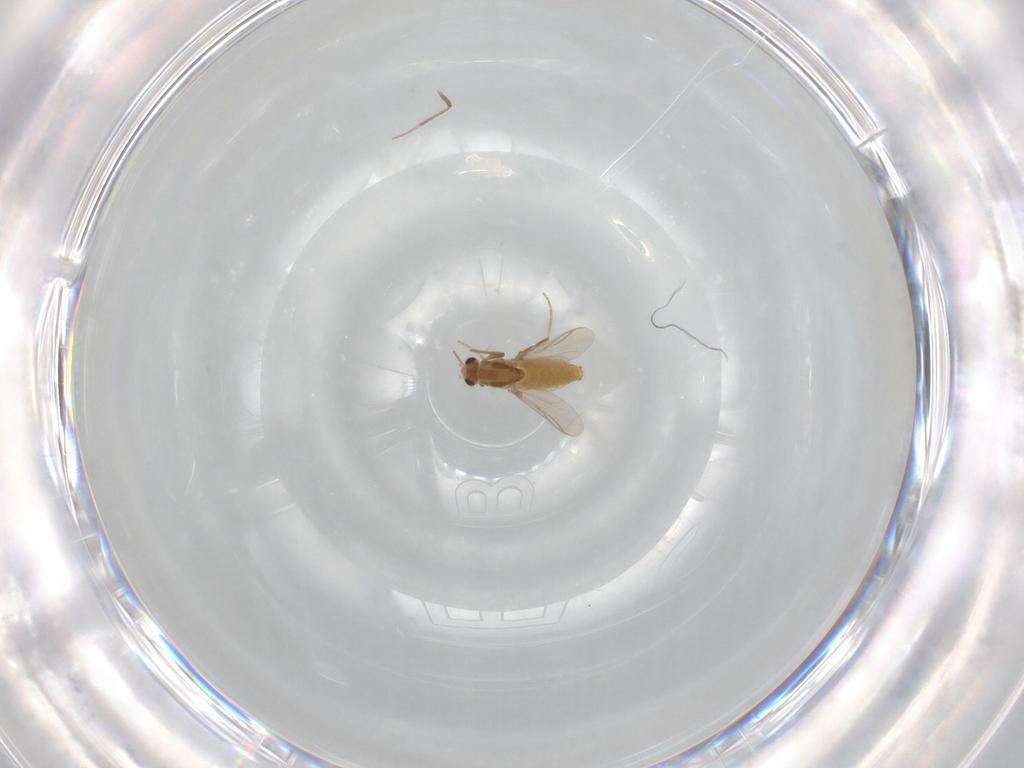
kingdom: Animalia
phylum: Arthropoda
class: Insecta
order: Diptera
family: Chironomidae
